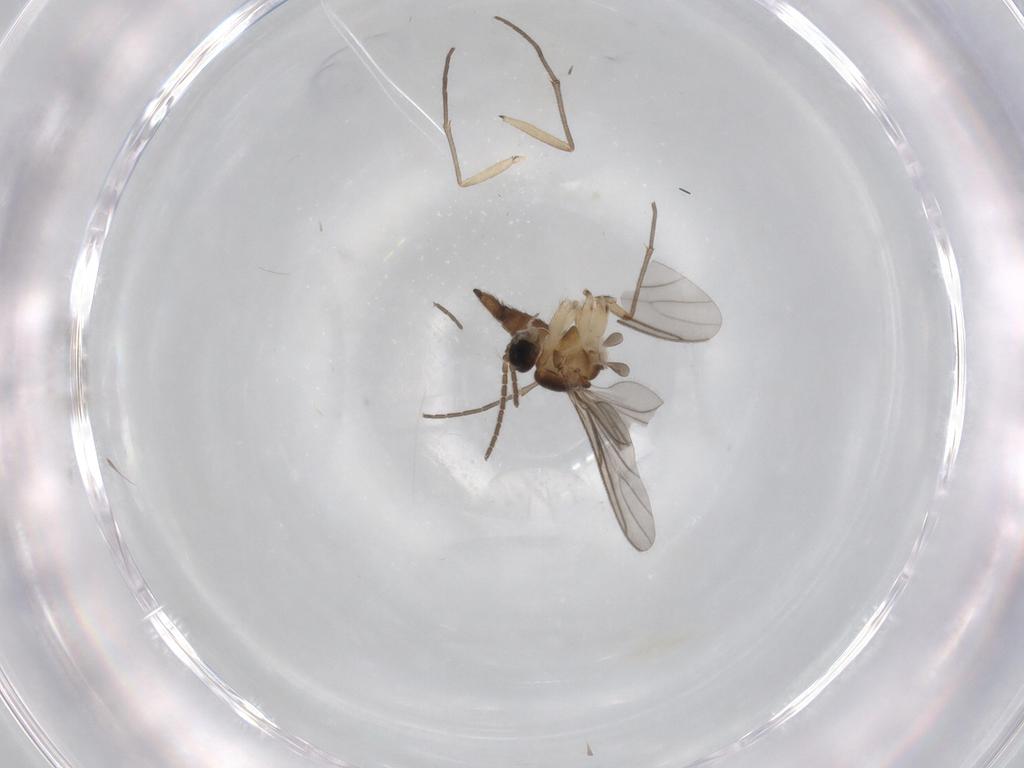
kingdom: Animalia
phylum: Arthropoda
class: Insecta
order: Diptera
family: Sciaridae
